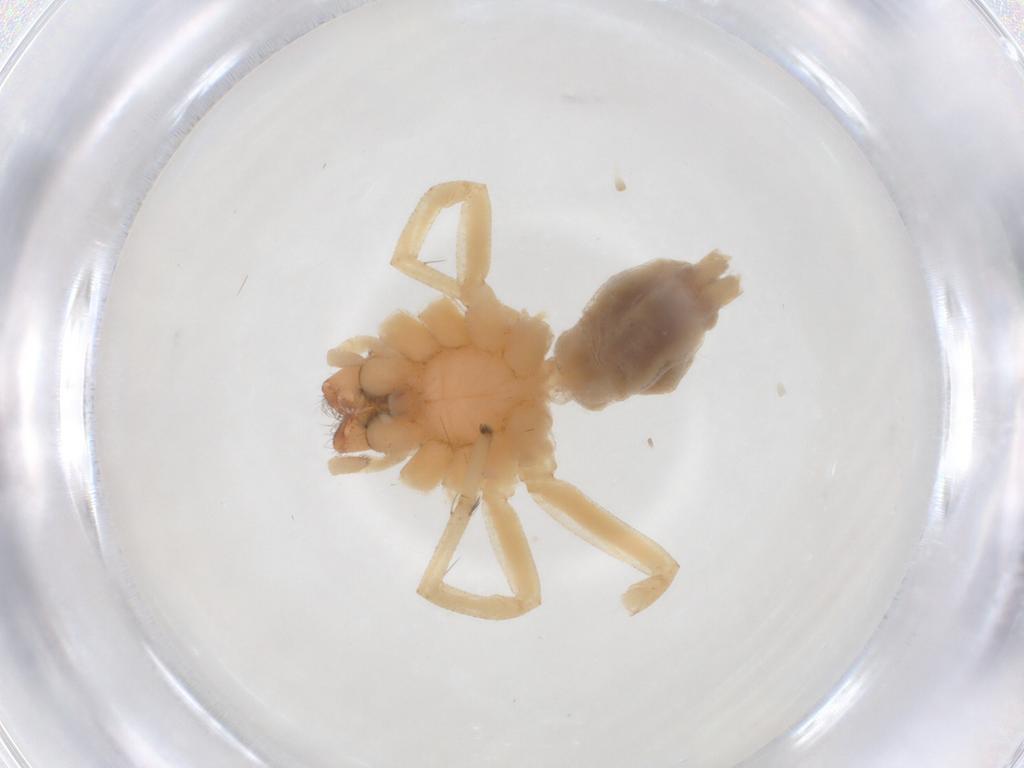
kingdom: Animalia
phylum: Arthropoda
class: Arachnida
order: Araneae
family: Cheiracanthiidae
